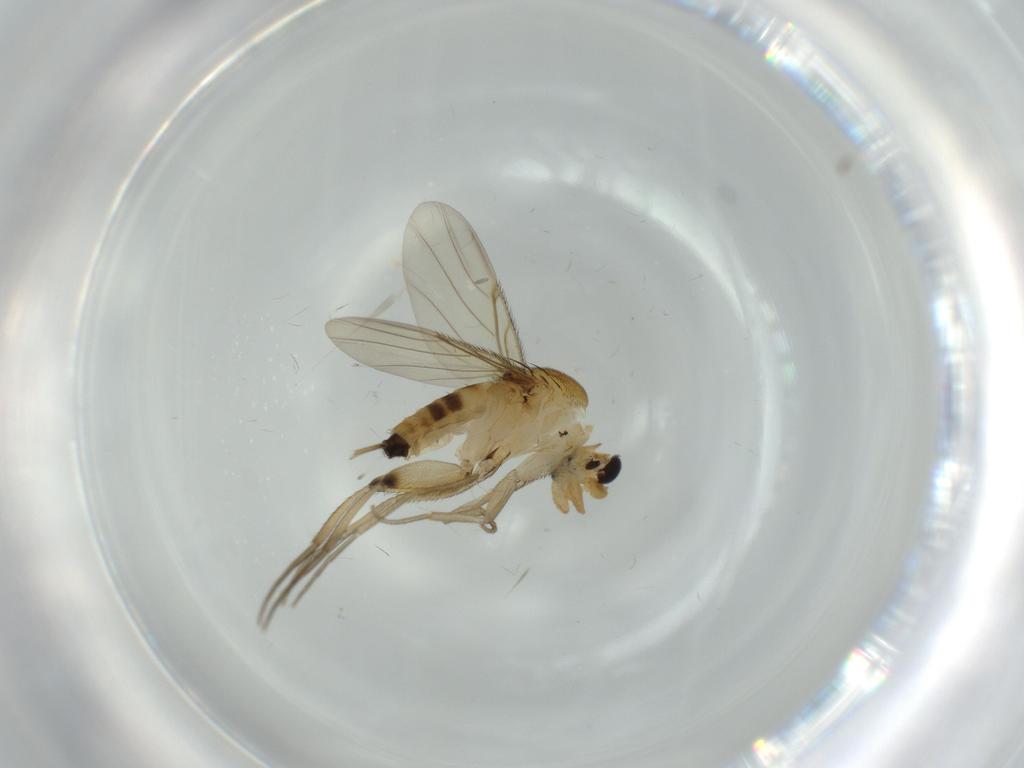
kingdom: Animalia
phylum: Arthropoda
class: Insecta
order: Diptera
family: Phoridae
